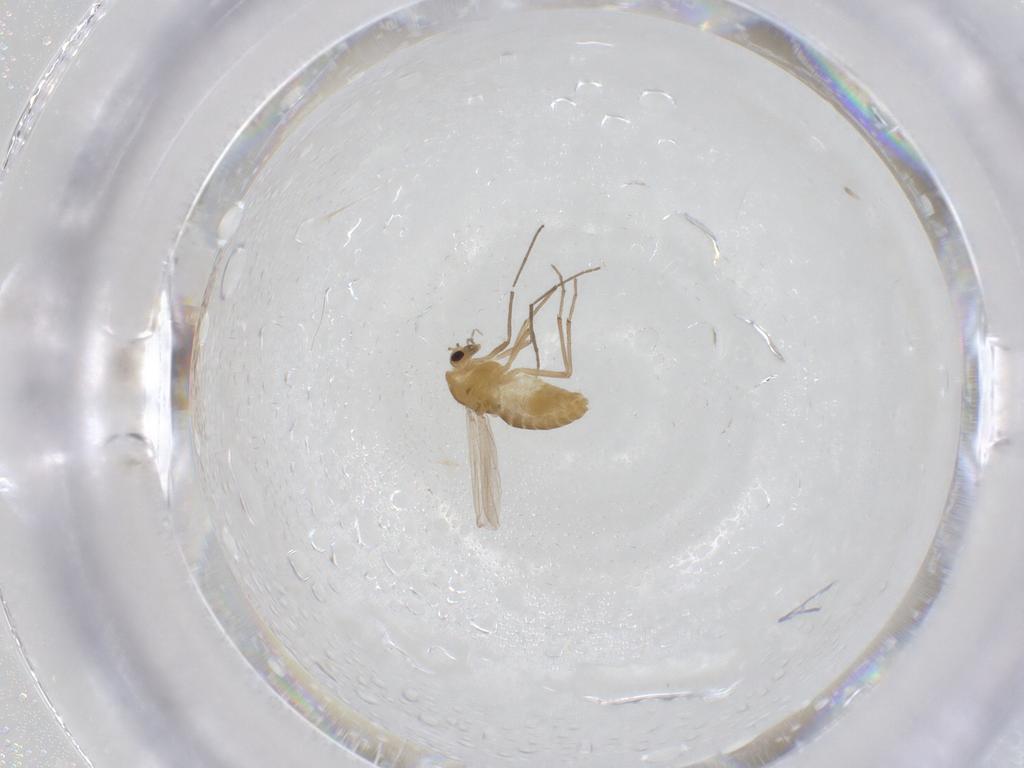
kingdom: Animalia
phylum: Arthropoda
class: Insecta
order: Diptera
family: Chironomidae
